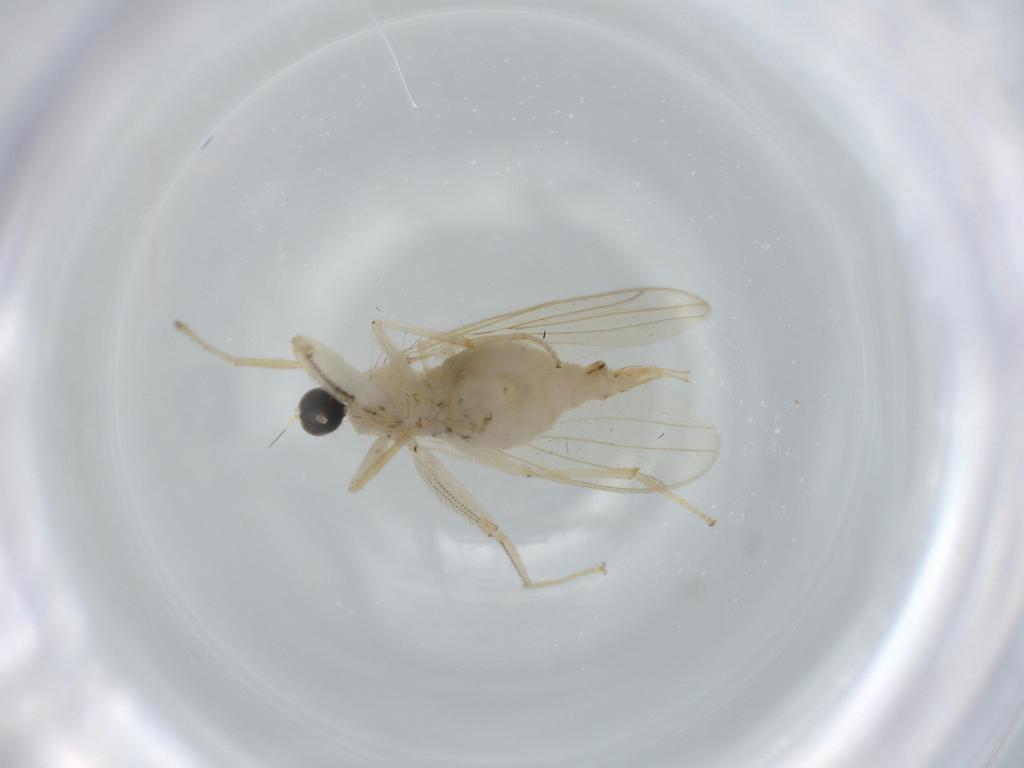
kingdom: Animalia
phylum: Arthropoda
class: Insecta
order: Diptera
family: Hybotidae
